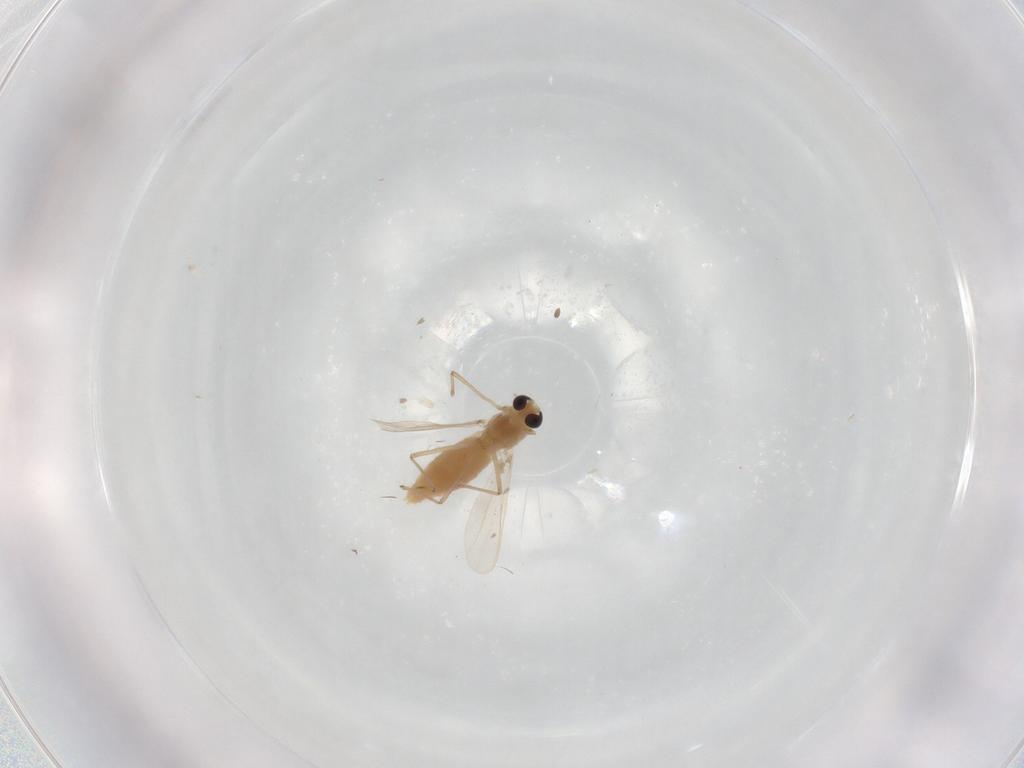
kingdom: Animalia
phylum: Arthropoda
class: Insecta
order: Diptera
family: Chironomidae
